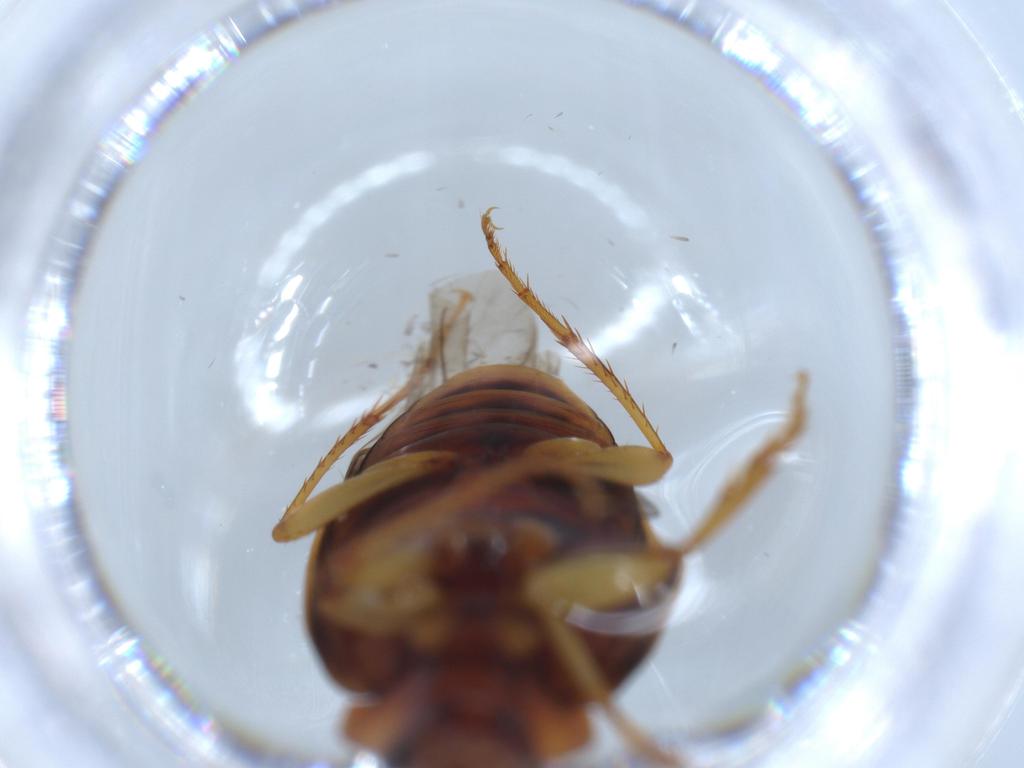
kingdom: Animalia
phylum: Arthropoda
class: Insecta
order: Coleoptera
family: Carabidae
